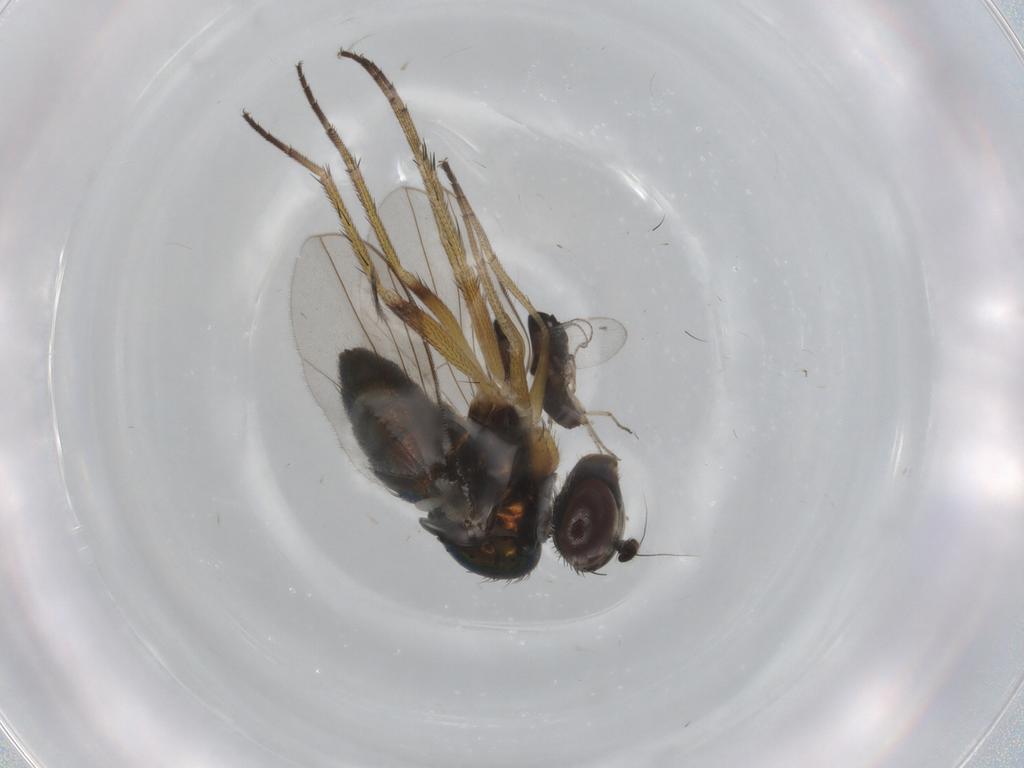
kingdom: Animalia
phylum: Arthropoda
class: Insecta
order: Diptera
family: Ceratopogonidae
